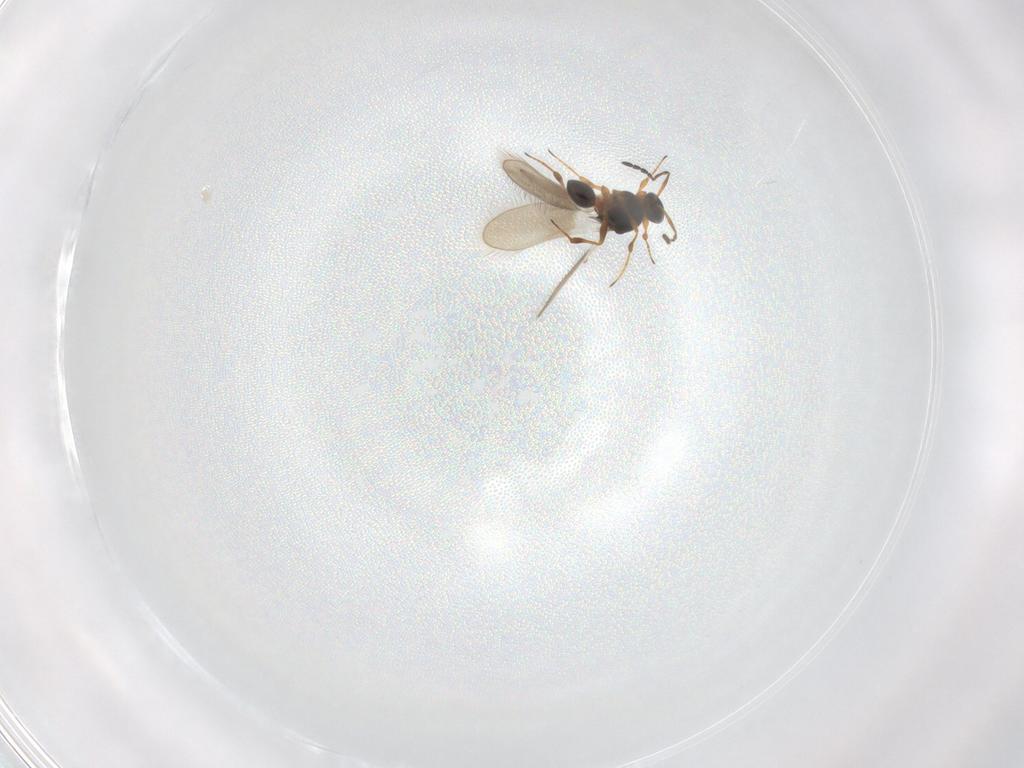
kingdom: Animalia
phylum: Arthropoda
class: Insecta
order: Hymenoptera
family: Platygastridae
